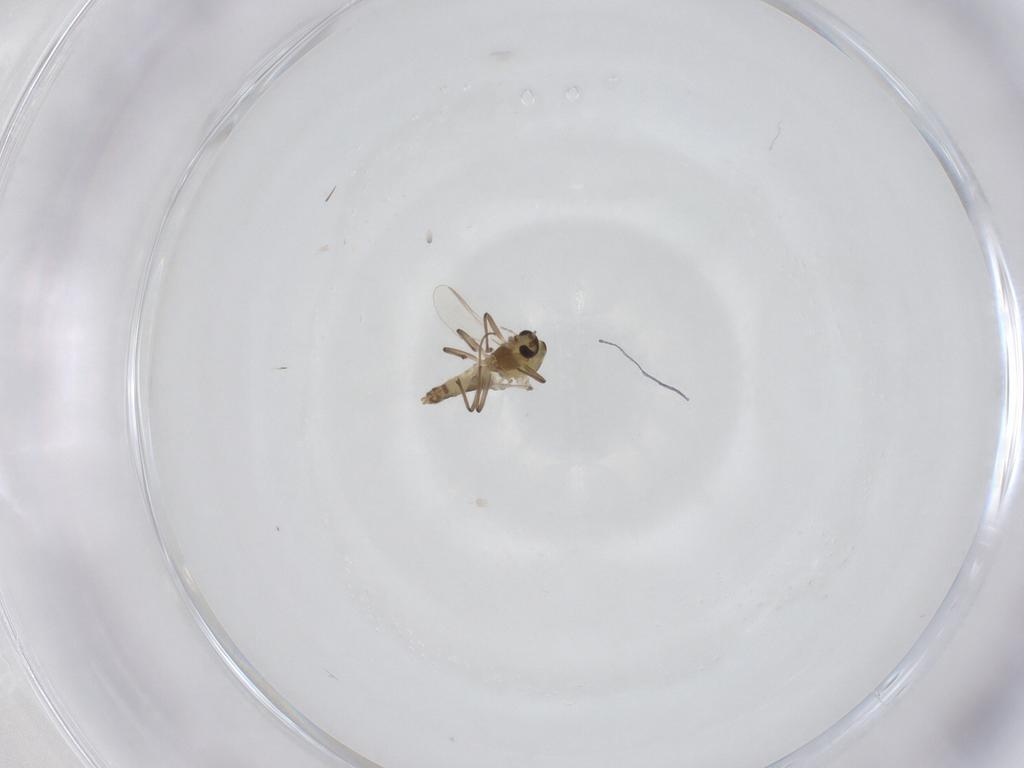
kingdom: Animalia
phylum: Arthropoda
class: Insecta
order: Diptera
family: Chironomidae
